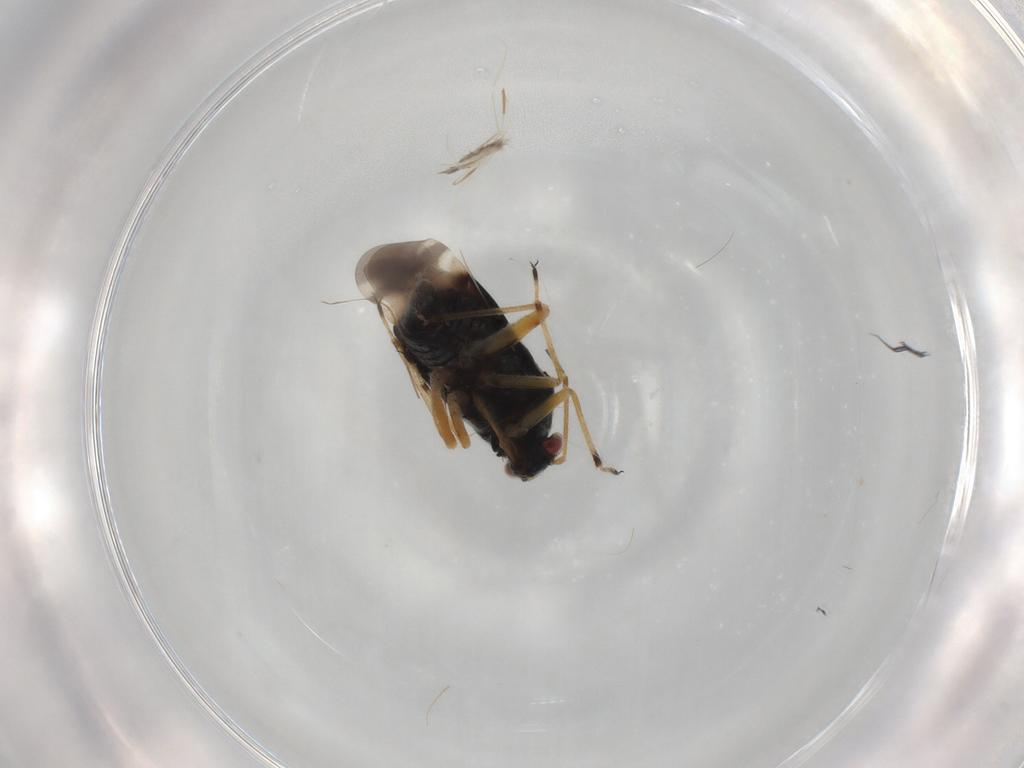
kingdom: Animalia
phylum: Arthropoda
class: Insecta
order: Hemiptera
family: Miridae
